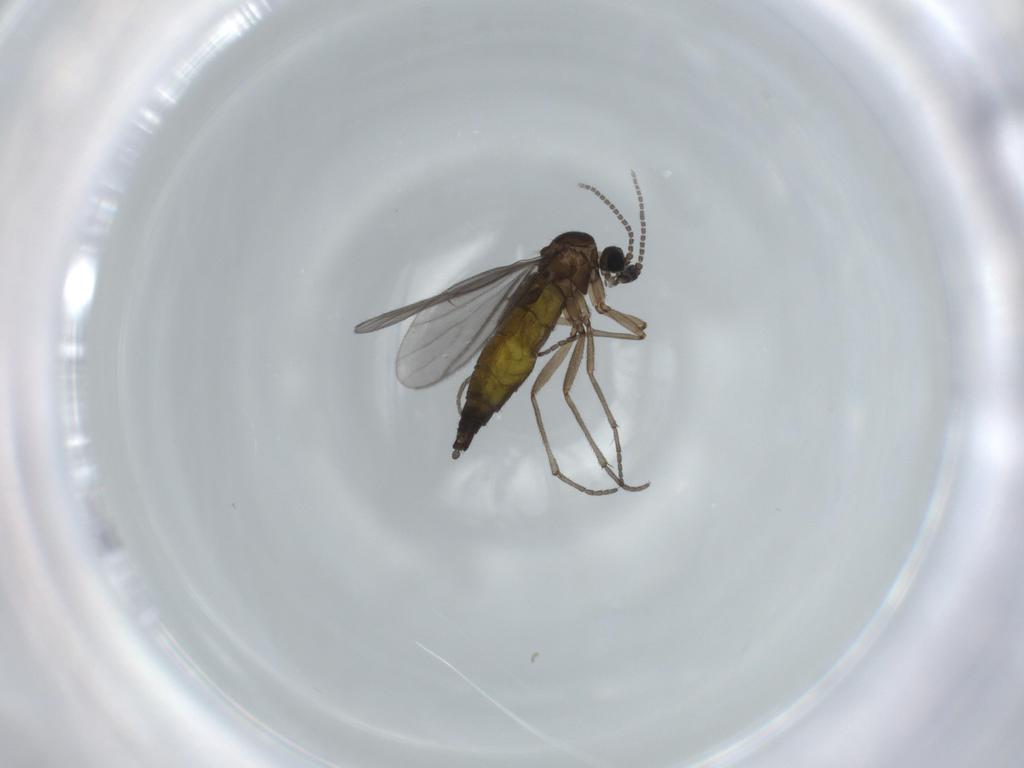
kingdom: Animalia
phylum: Arthropoda
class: Insecta
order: Diptera
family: Sciaridae
